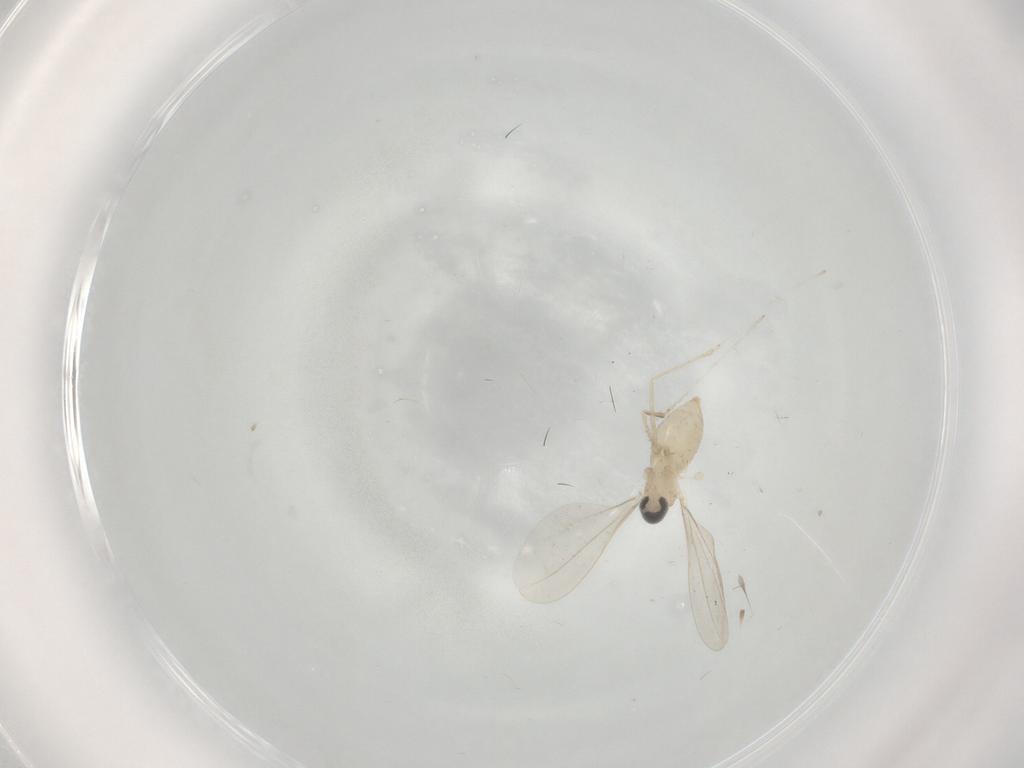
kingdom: Animalia
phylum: Arthropoda
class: Insecta
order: Diptera
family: Cecidomyiidae
